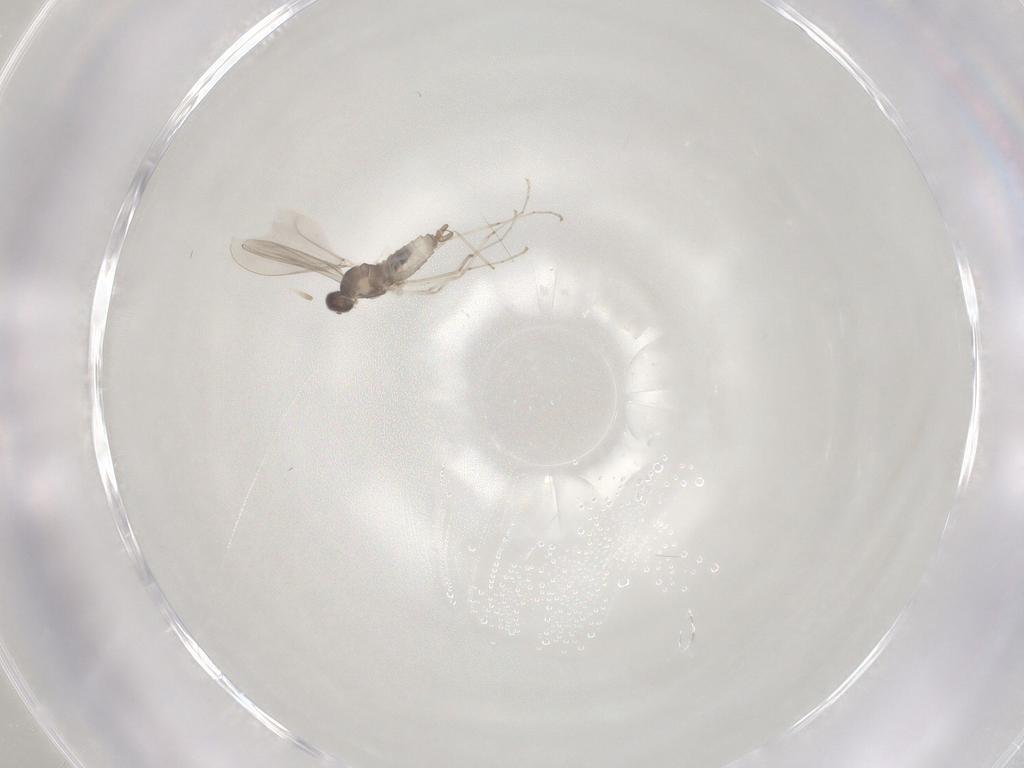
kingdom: Animalia
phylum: Arthropoda
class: Insecta
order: Diptera
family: Cecidomyiidae
